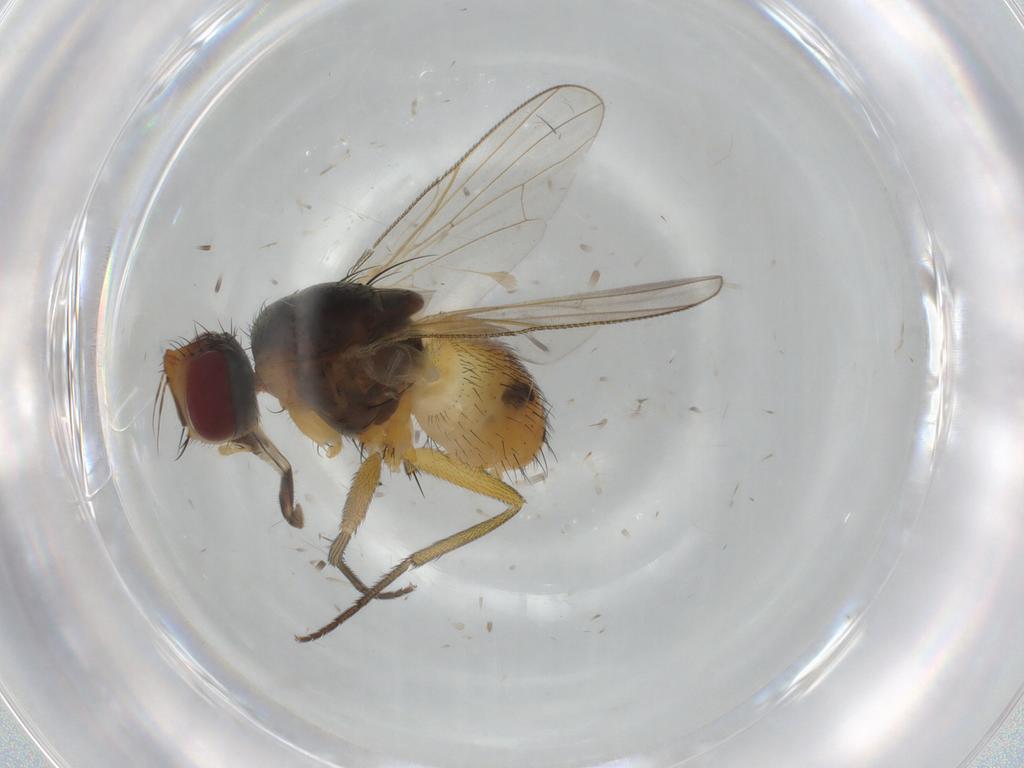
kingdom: Animalia
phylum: Arthropoda
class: Insecta
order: Diptera
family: Muscidae
